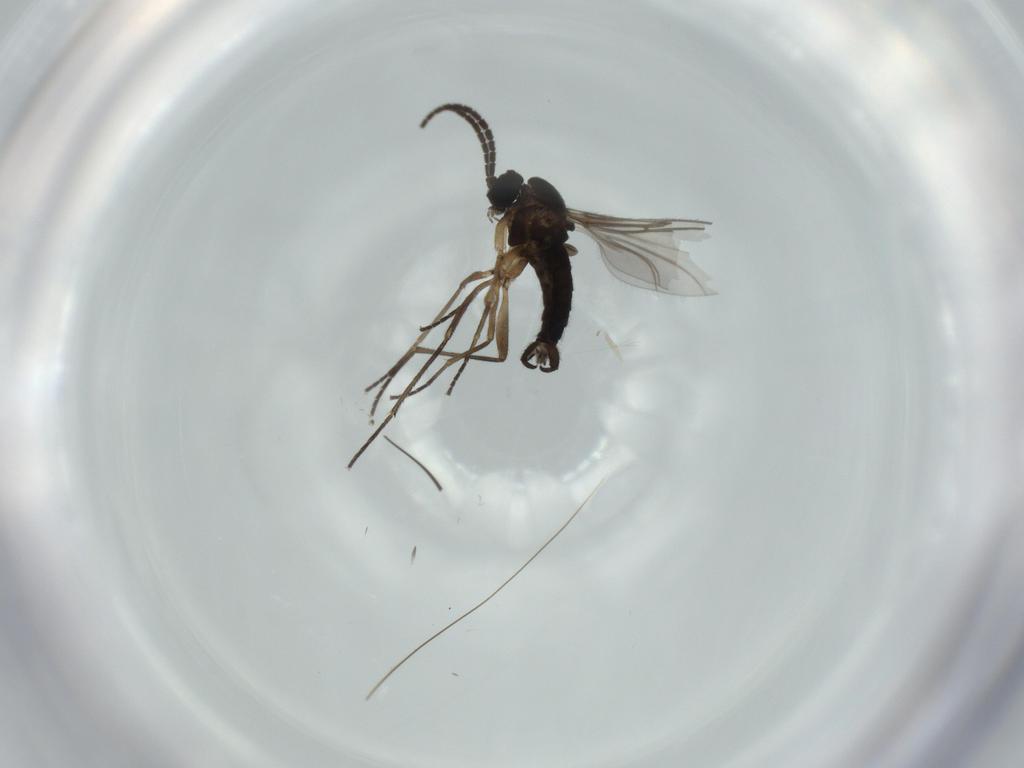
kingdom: Animalia
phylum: Arthropoda
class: Insecta
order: Diptera
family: Sciaridae
